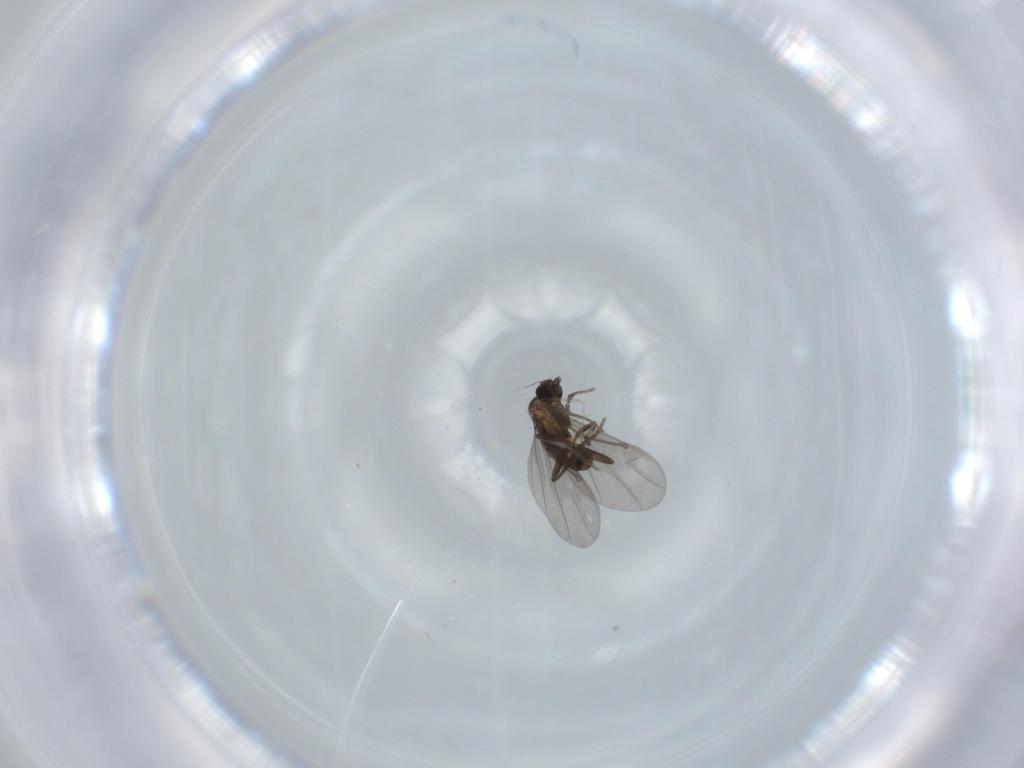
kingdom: Animalia
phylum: Arthropoda
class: Insecta
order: Diptera
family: Phoridae
